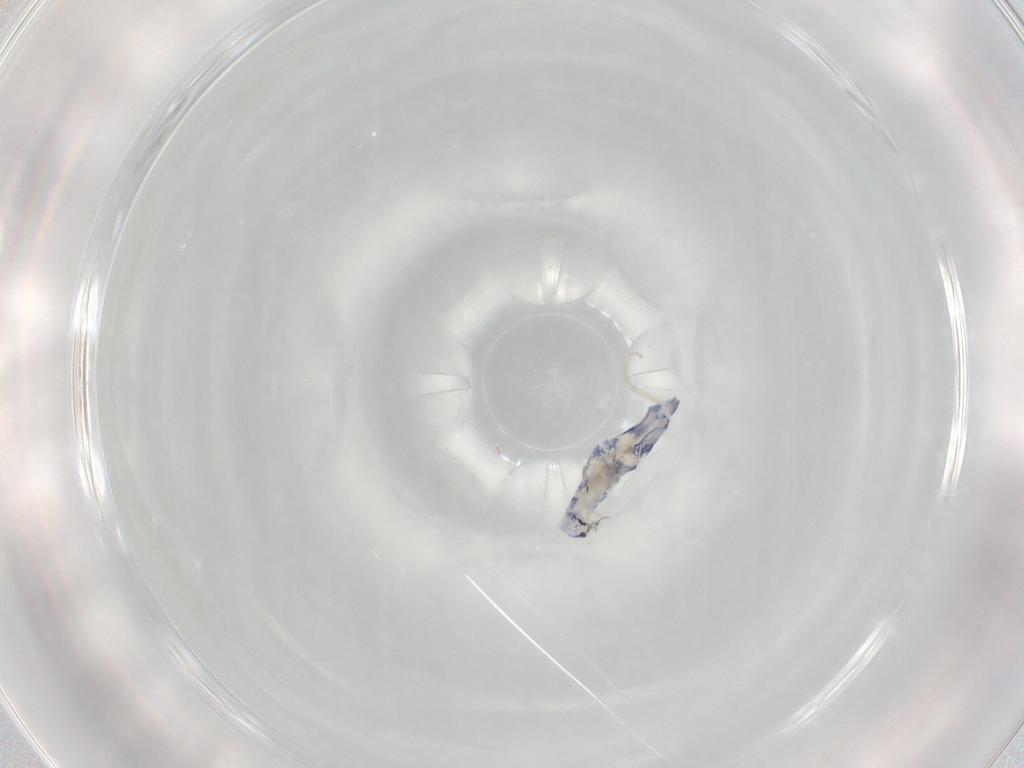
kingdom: Animalia
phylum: Arthropoda
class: Collembola
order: Entomobryomorpha
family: Entomobryidae
